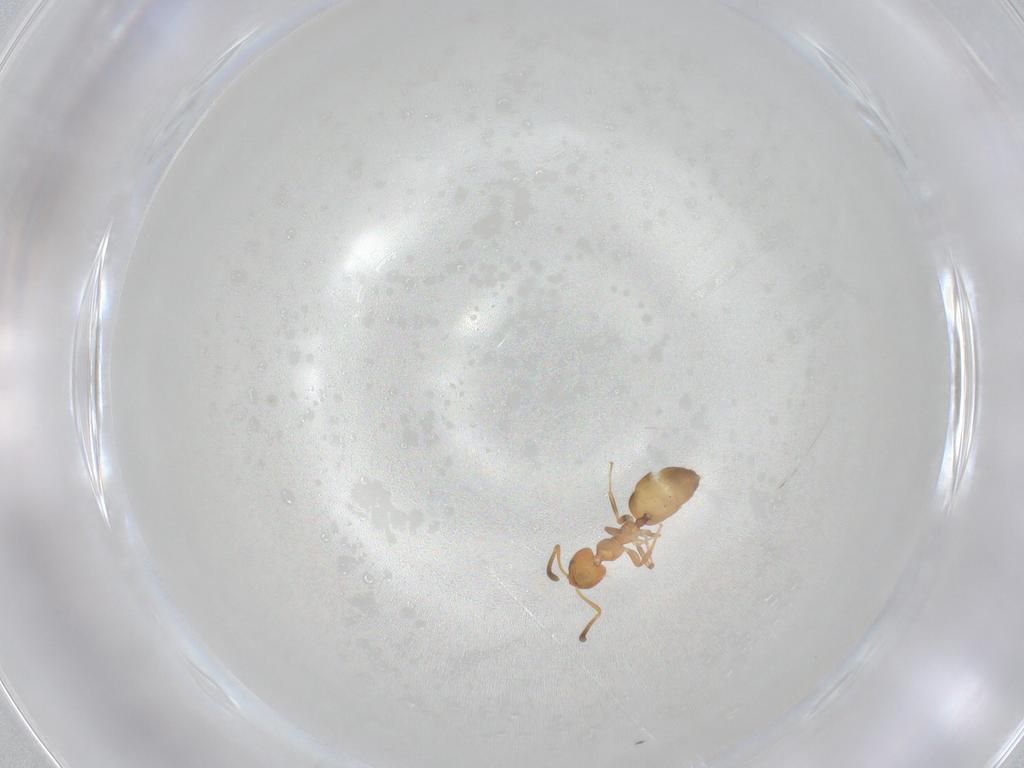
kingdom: Animalia
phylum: Arthropoda
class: Insecta
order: Hymenoptera
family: Formicidae
